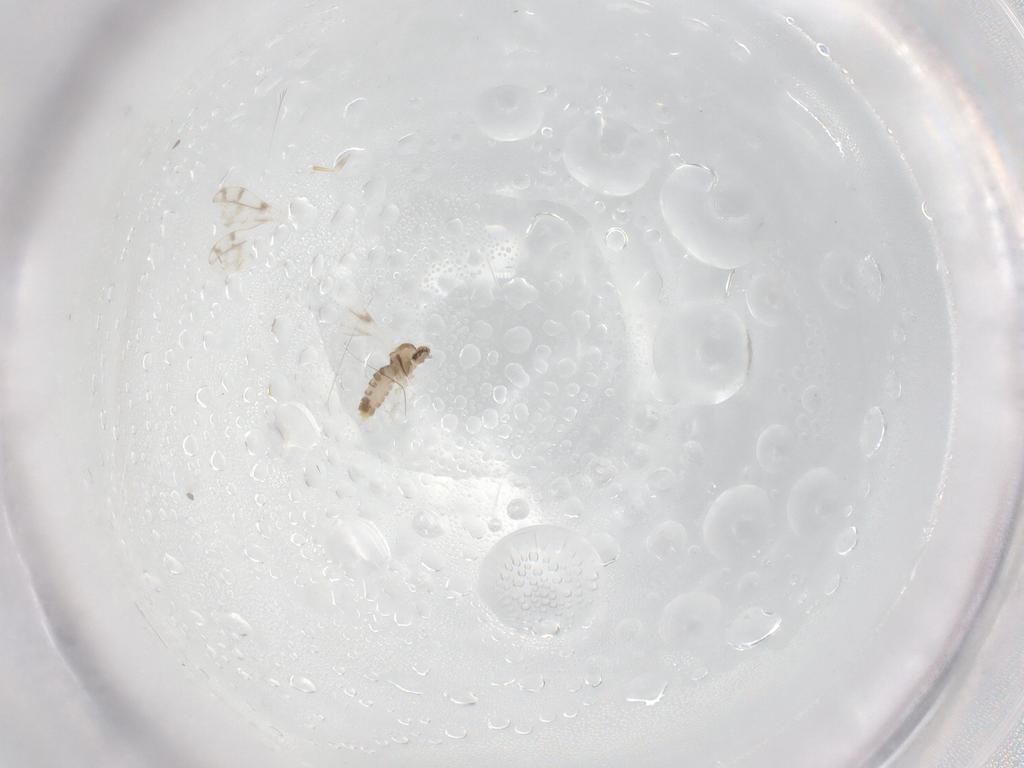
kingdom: Animalia
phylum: Arthropoda
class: Insecta
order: Diptera
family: Cecidomyiidae
